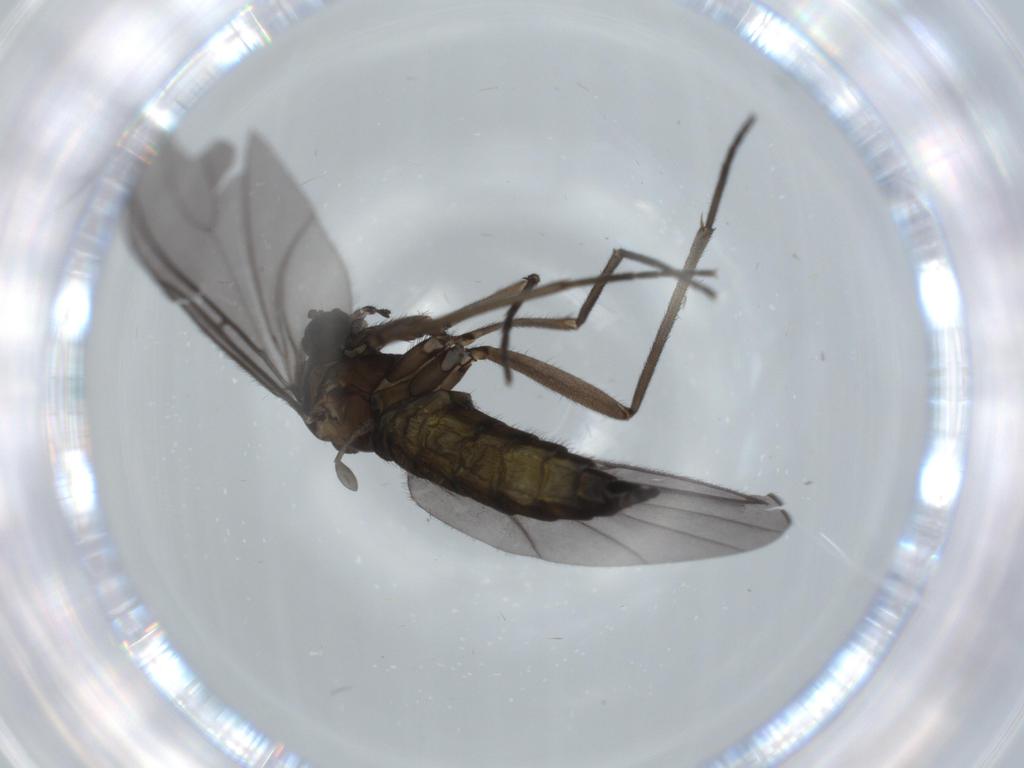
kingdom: Animalia
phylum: Arthropoda
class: Insecta
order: Diptera
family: Sciaridae
